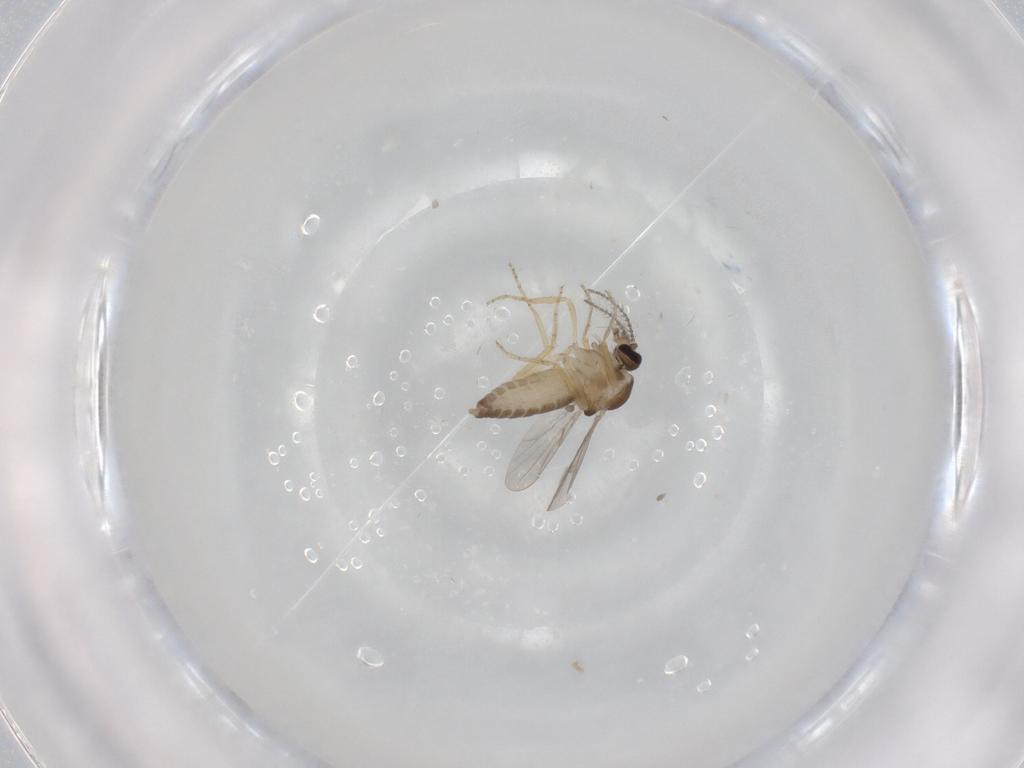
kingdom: Animalia
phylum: Arthropoda
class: Insecta
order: Diptera
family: Ceratopogonidae
